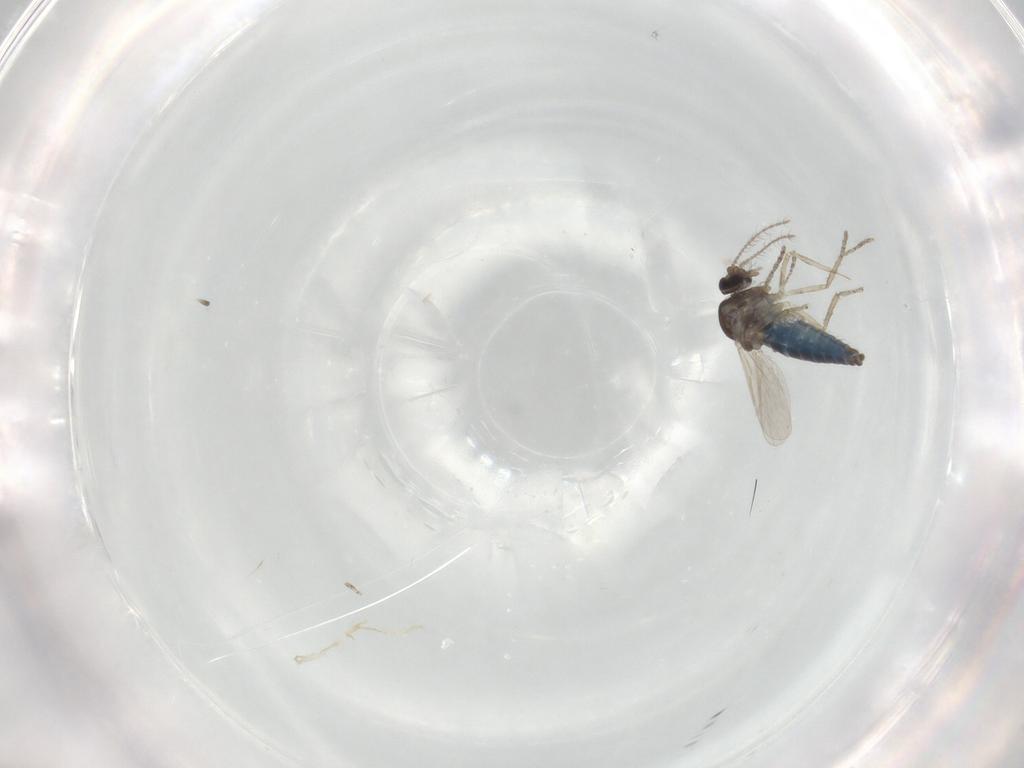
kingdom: Animalia
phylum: Arthropoda
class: Insecta
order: Diptera
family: Ceratopogonidae
